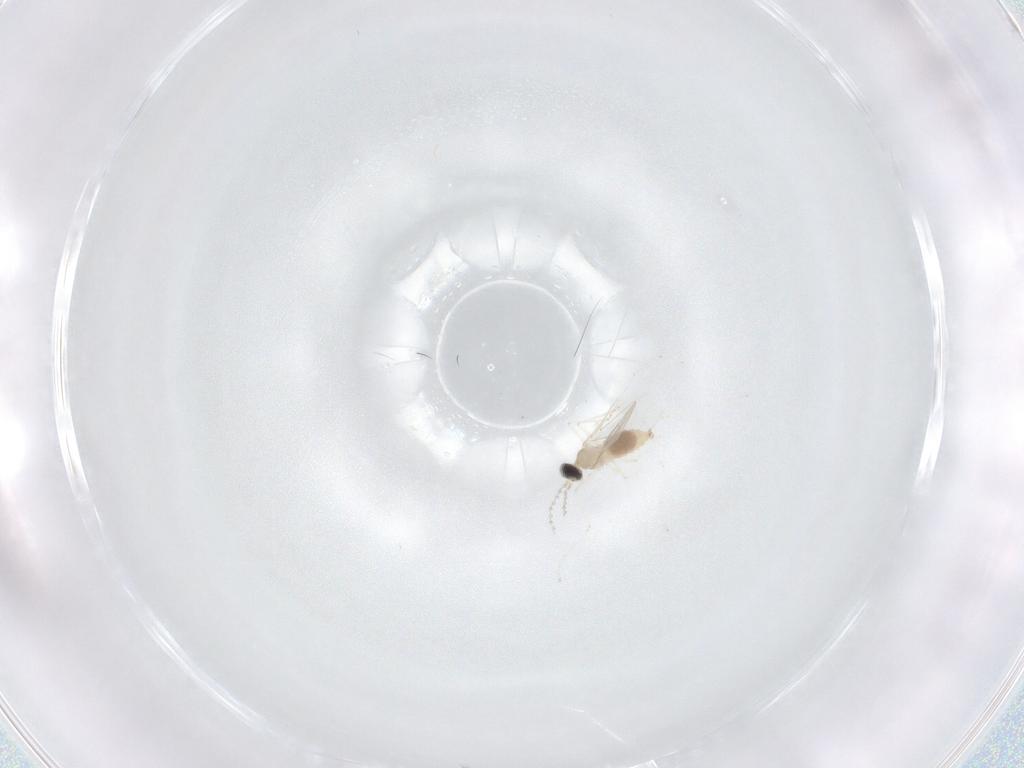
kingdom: Animalia
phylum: Arthropoda
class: Insecta
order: Diptera
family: Cecidomyiidae
